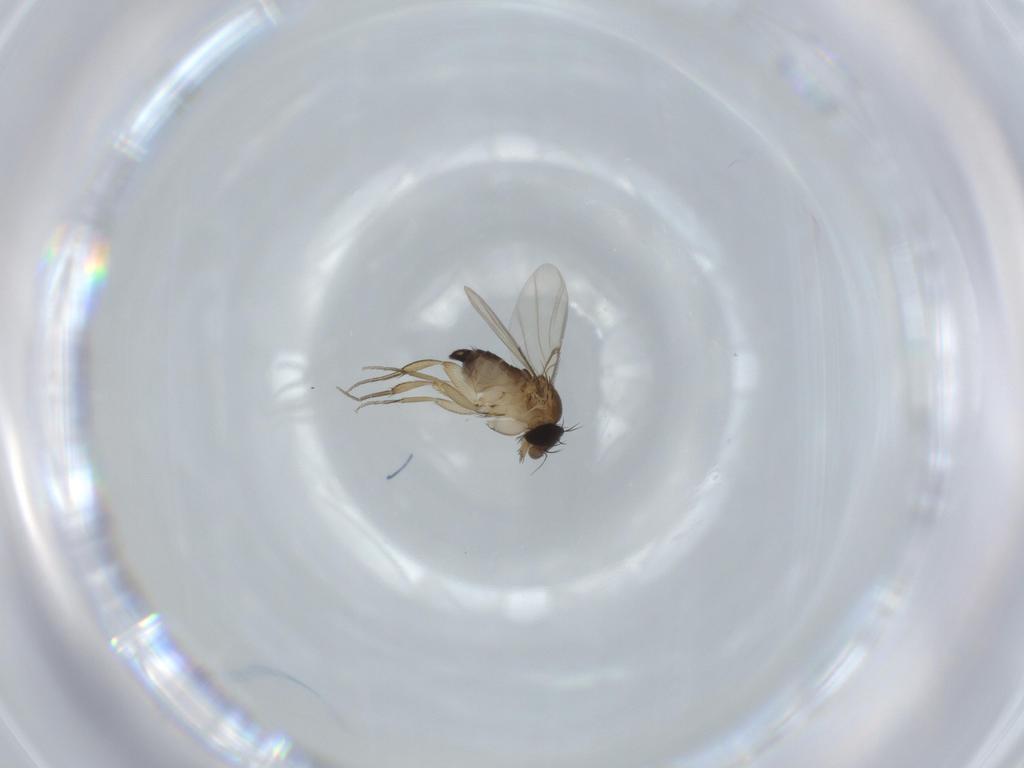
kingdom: Animalia
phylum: Arthropoda
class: Insecta
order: Diptera
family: Phoridae
